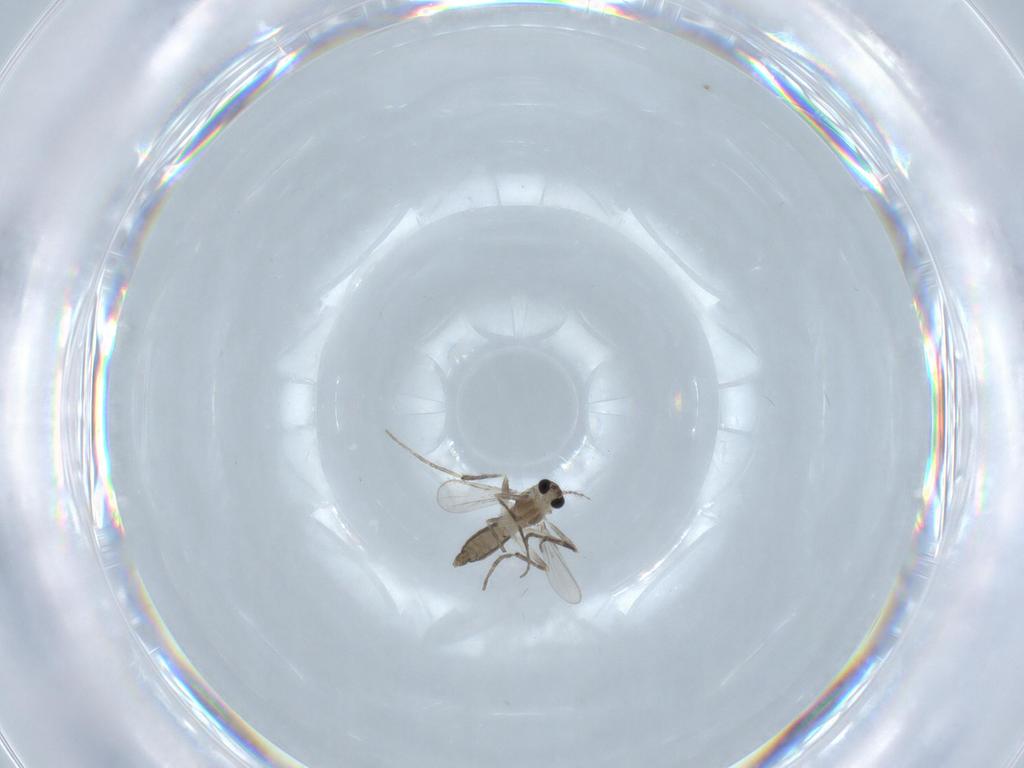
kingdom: Animalia
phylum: Arthropoda
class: Insecta
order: Diptera
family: Chironomidae
